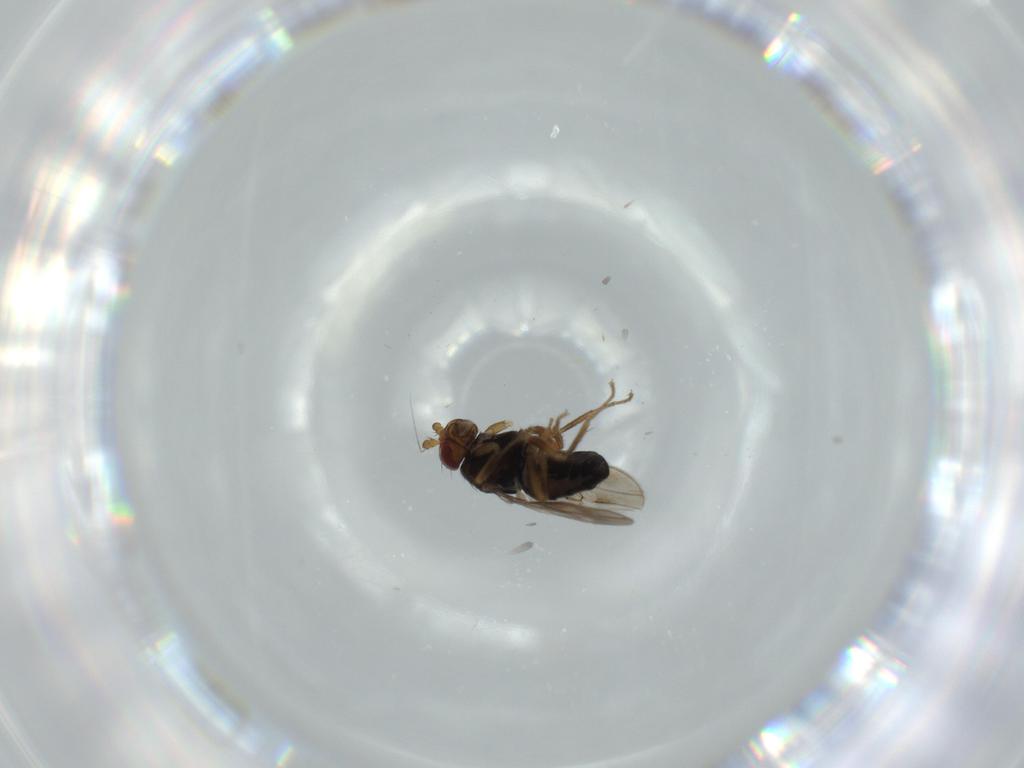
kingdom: Animalia
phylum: Arthropoda
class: Insecta
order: Diptera
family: Sphaeroceridae
